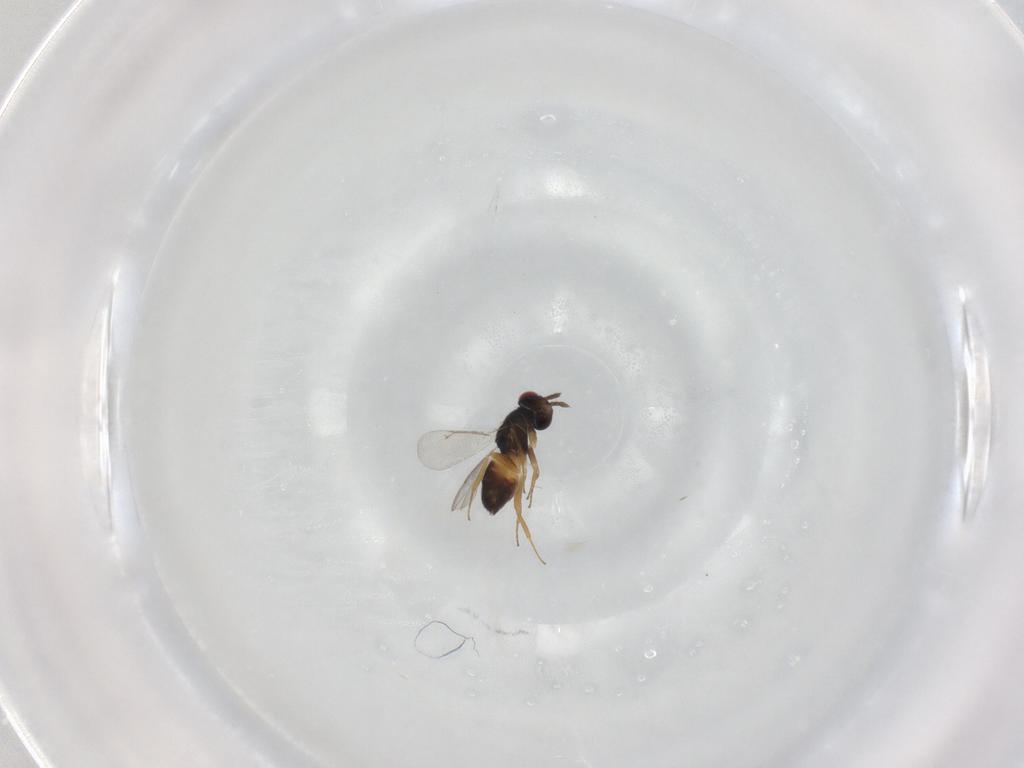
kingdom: Animalia
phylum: Arthropoda
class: Insecta
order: Hymenoptera
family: Eulophidae
